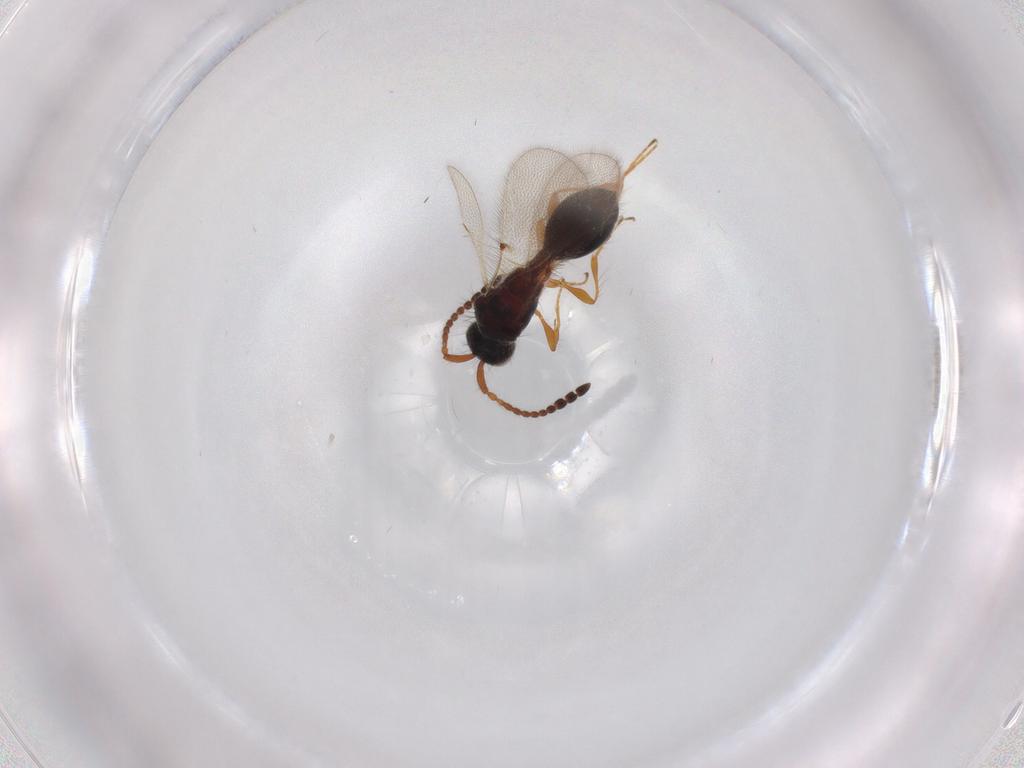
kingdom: Animalia
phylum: Arthropoda
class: Insecta
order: Hymenoptera
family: Diapriidae
